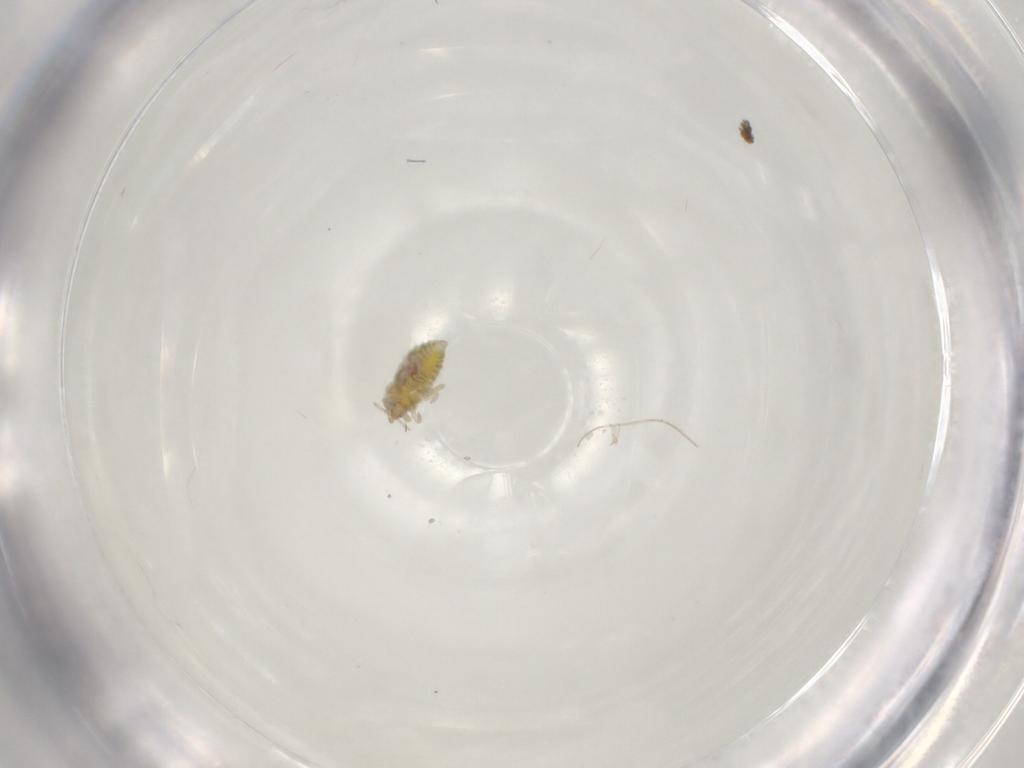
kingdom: Animalia
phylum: Arthropoda
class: Insecta
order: Neuroptera
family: Coniopterygidae
